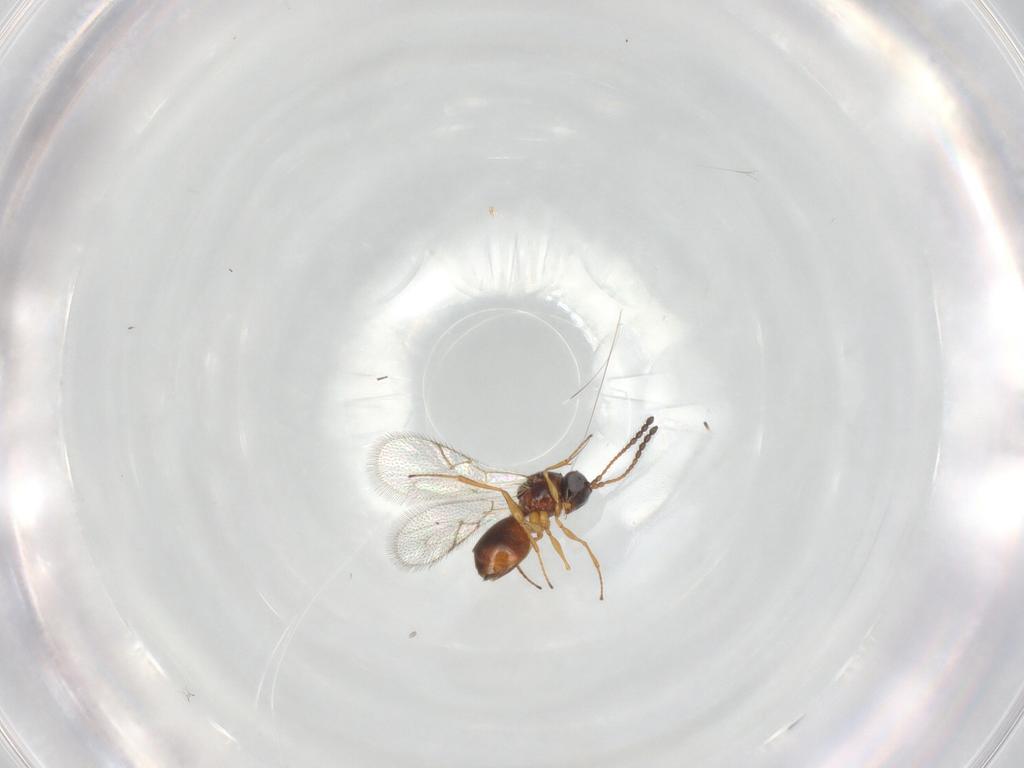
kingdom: Animalia
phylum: Arthropoda
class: Insecta
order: Hymenoptera
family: Figitidae
